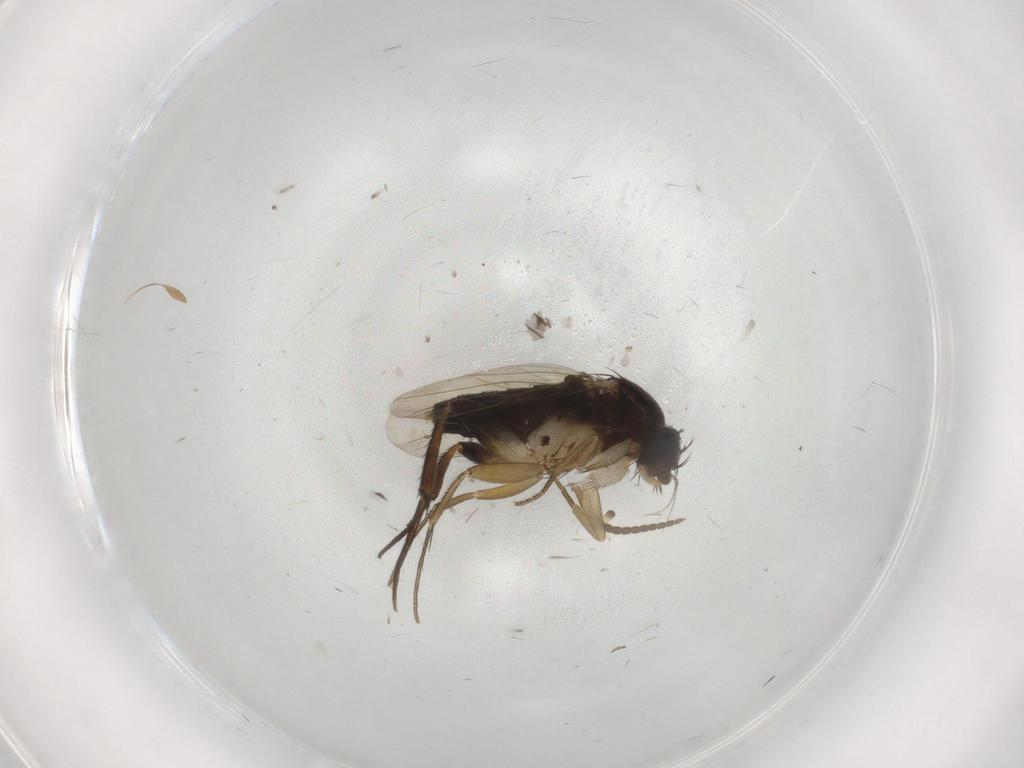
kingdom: Animalia
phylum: Arthropoda
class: Insecta
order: Diptera
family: Phoridae
